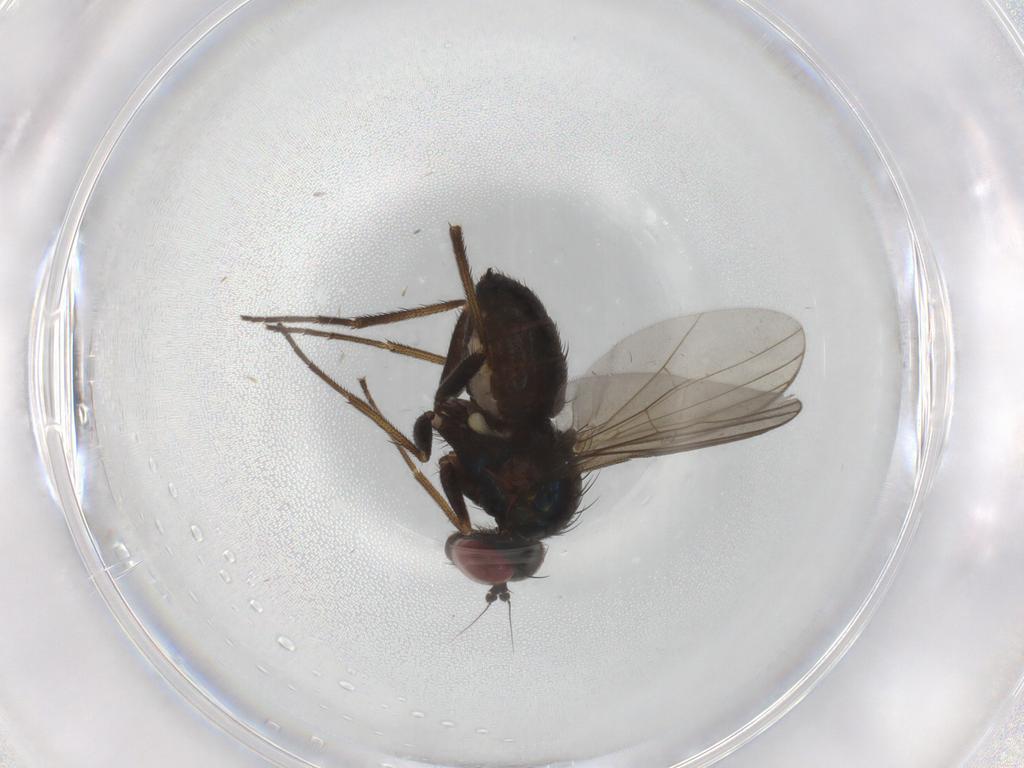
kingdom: Animalia
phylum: Arthropoda
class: Insecta
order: Diptera
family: Dolichopodidae
